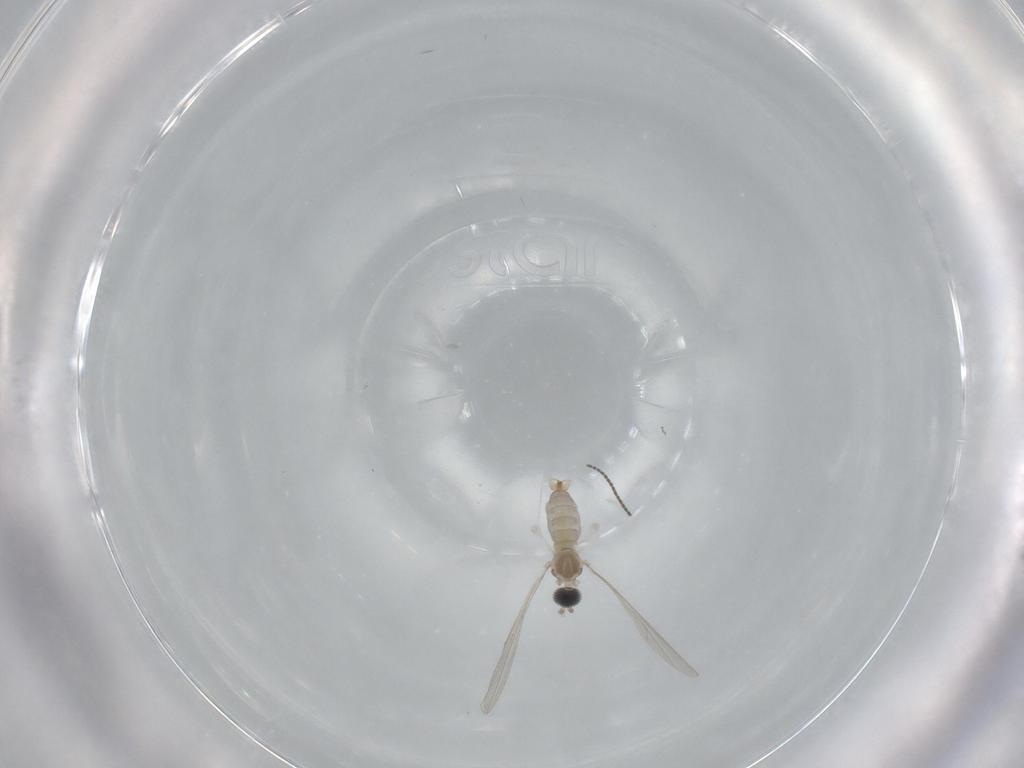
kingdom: Animalia
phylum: Arthropoda
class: Insecta
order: Diptera
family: Sciaridae
